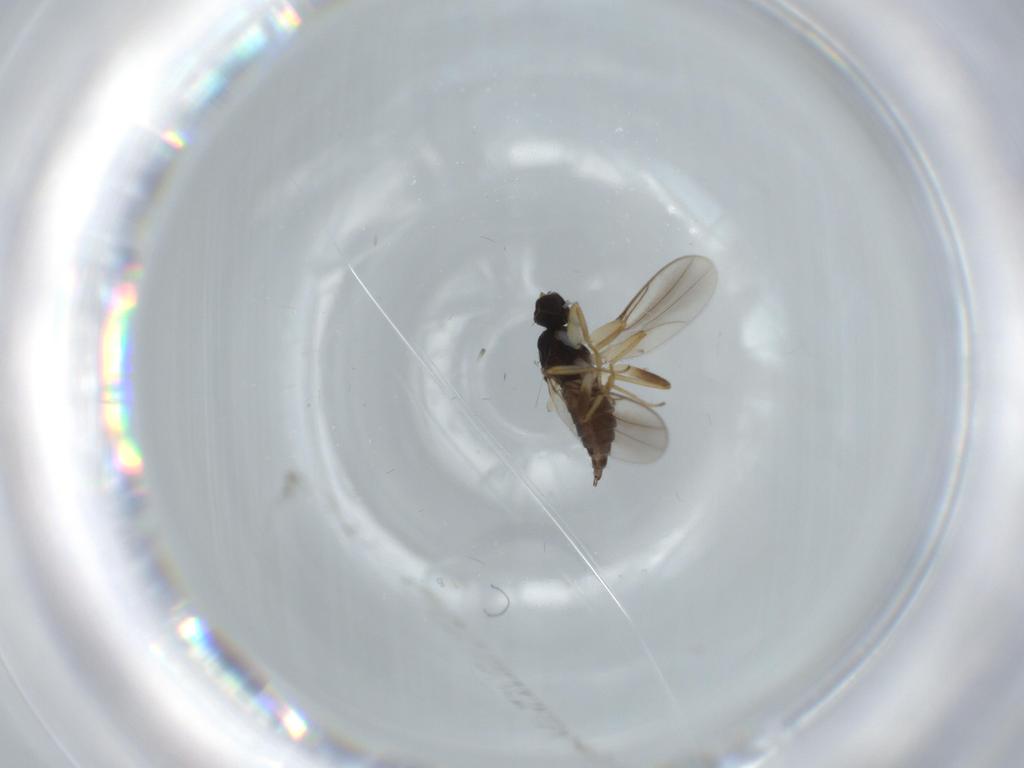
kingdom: Animalia
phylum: Arthropoda
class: Insecta
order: Diptera
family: Hybotidae
